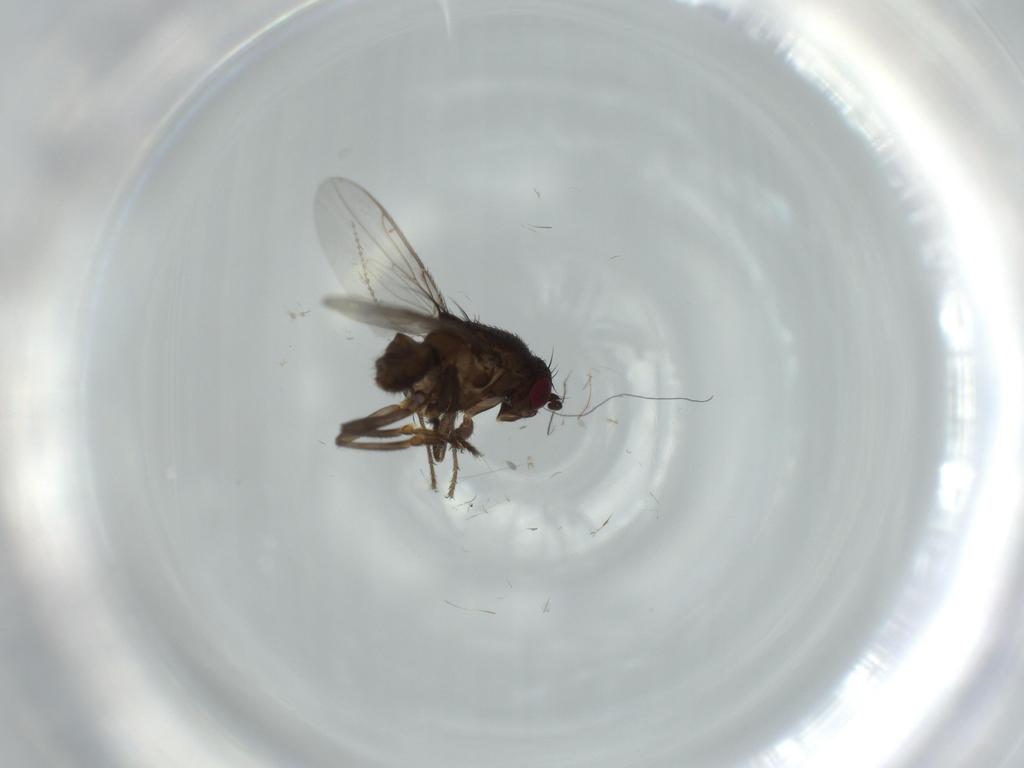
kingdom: Animalia
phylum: Arthropoda
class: Insecta
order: Diptera
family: Cecidomyiidae
